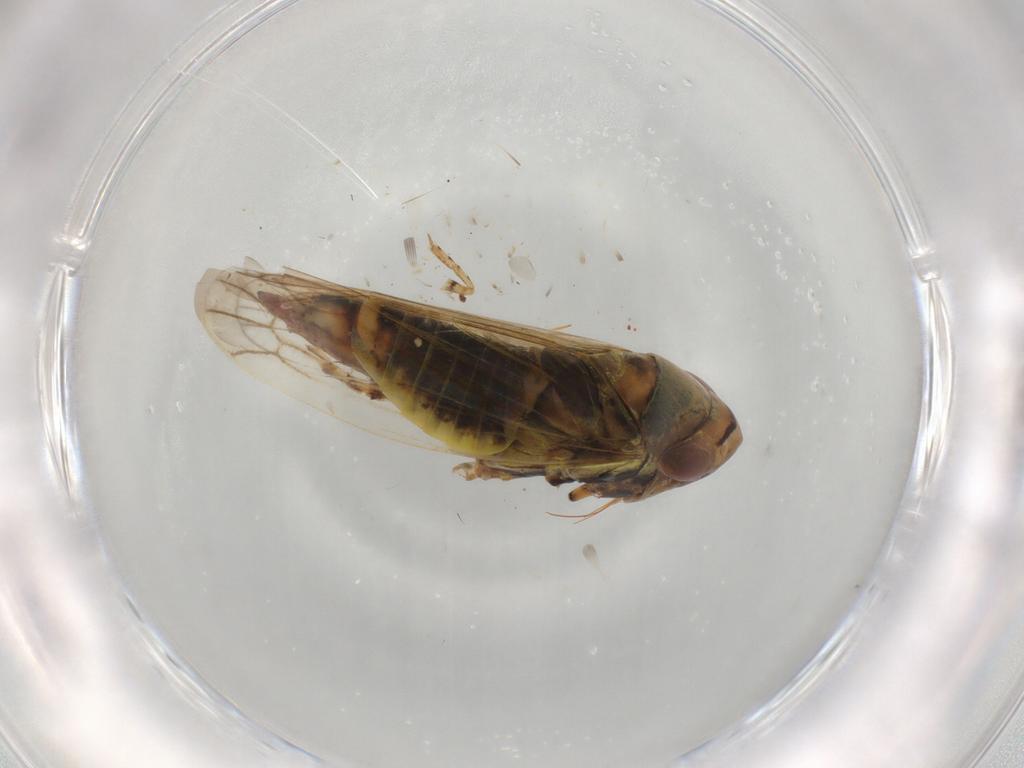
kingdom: Animalia
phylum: Arthropoda
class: Insecta
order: Hemiptera
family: Cicadellidae
